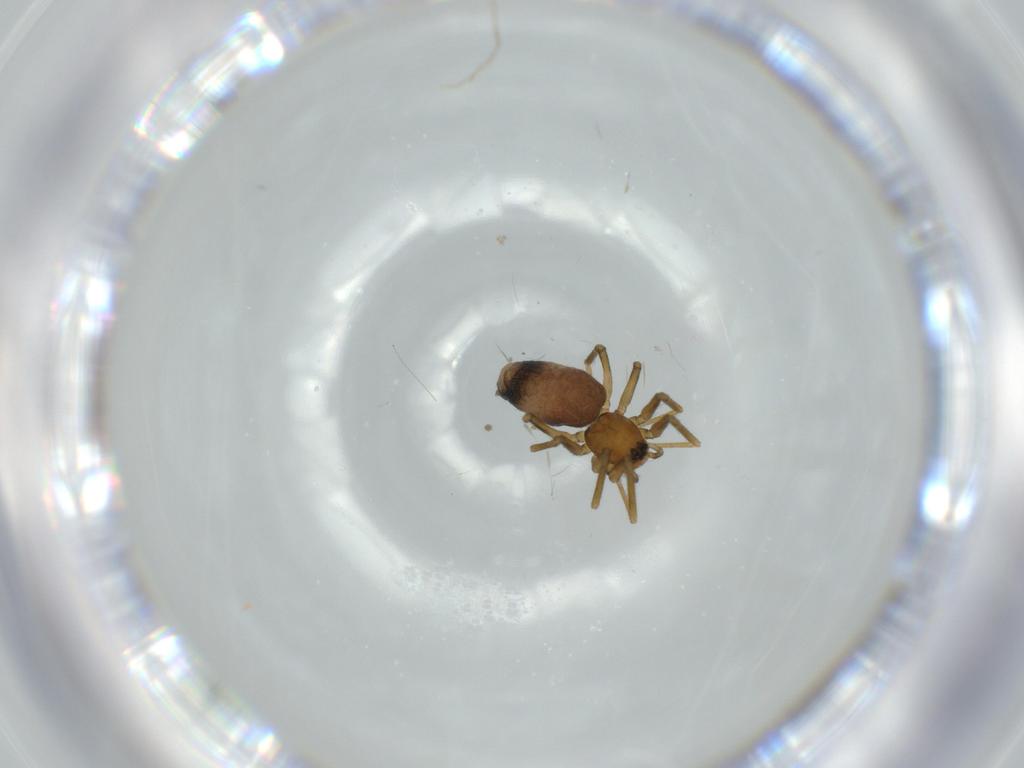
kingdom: Animalia
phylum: Arthropoda
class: Arachnida
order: Araneae
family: Linyphiidae
